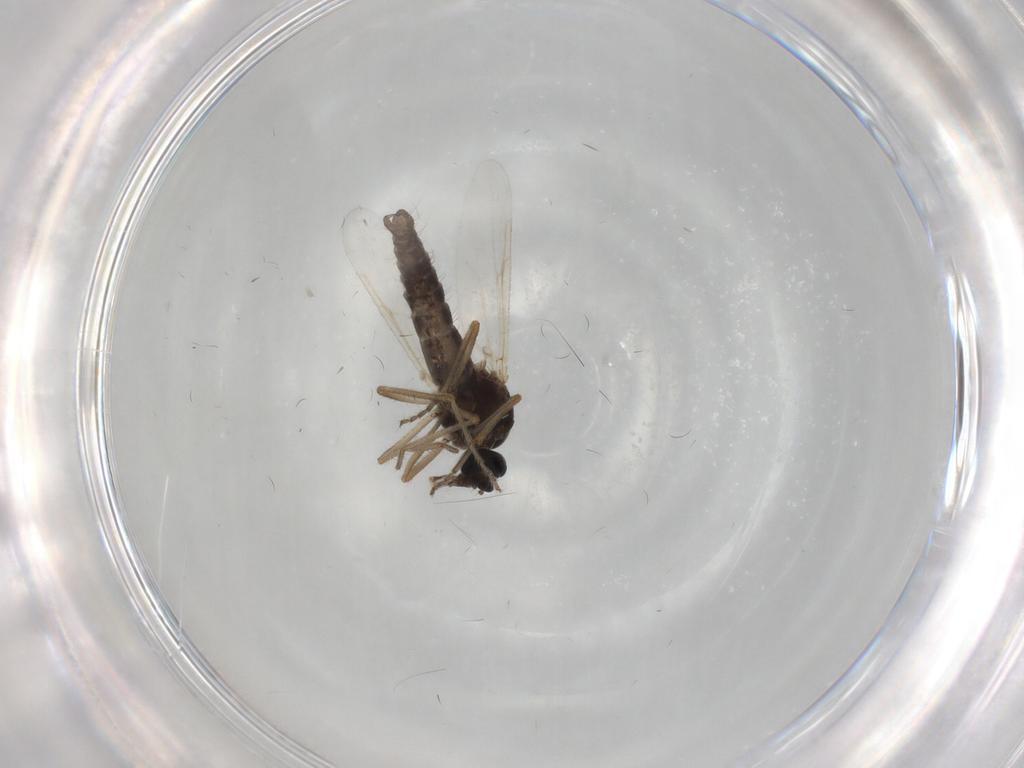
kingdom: Animalia
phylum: Arthropoda
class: Insecta
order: Diptera
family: Ceratopogonidae
